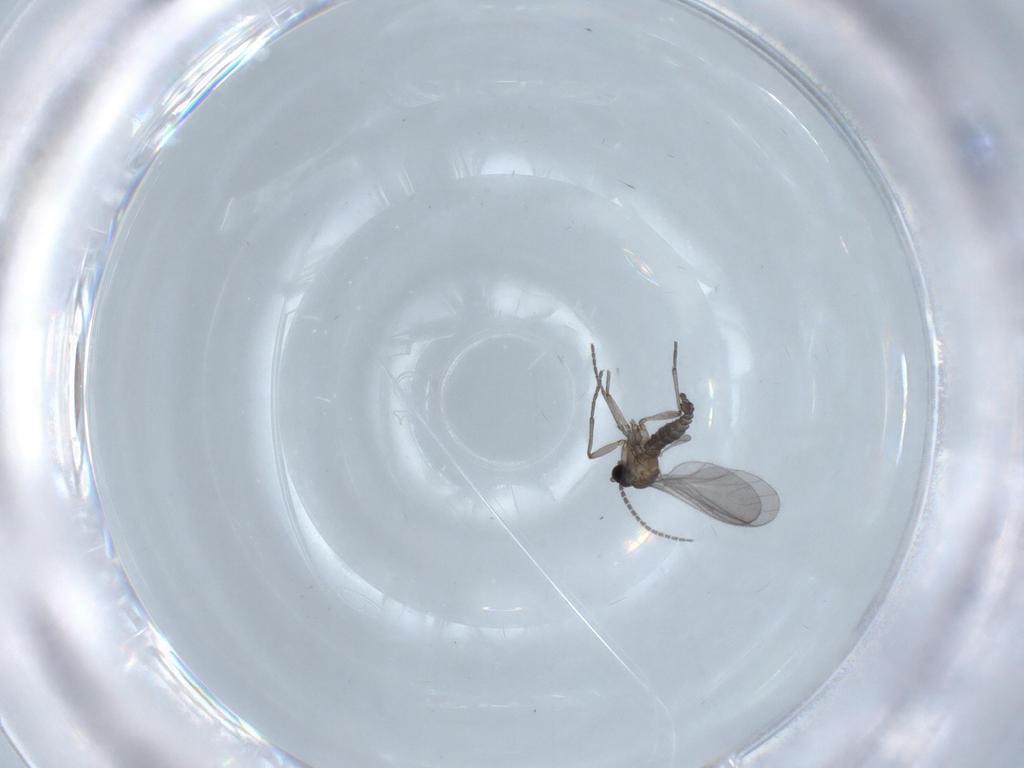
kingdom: Animalia
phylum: Arthropoda
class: Insecta
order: Diptera
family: Sciaridae
